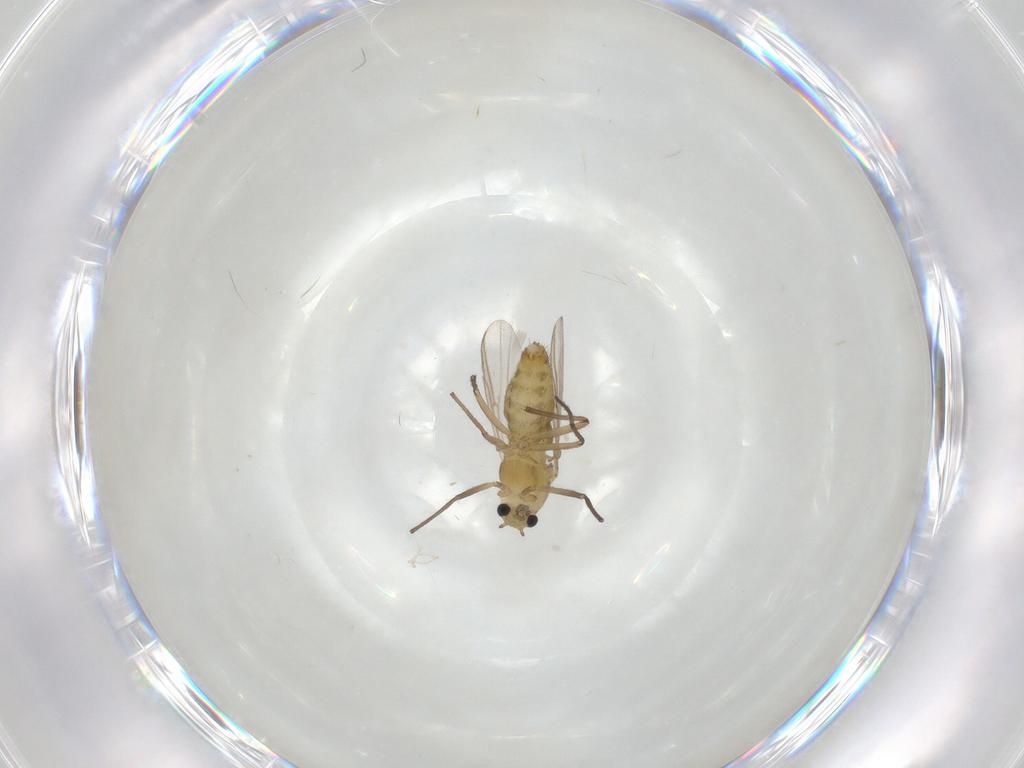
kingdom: Animalia
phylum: Arthropoda
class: Insecta
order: Diptera
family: Chironomidae
